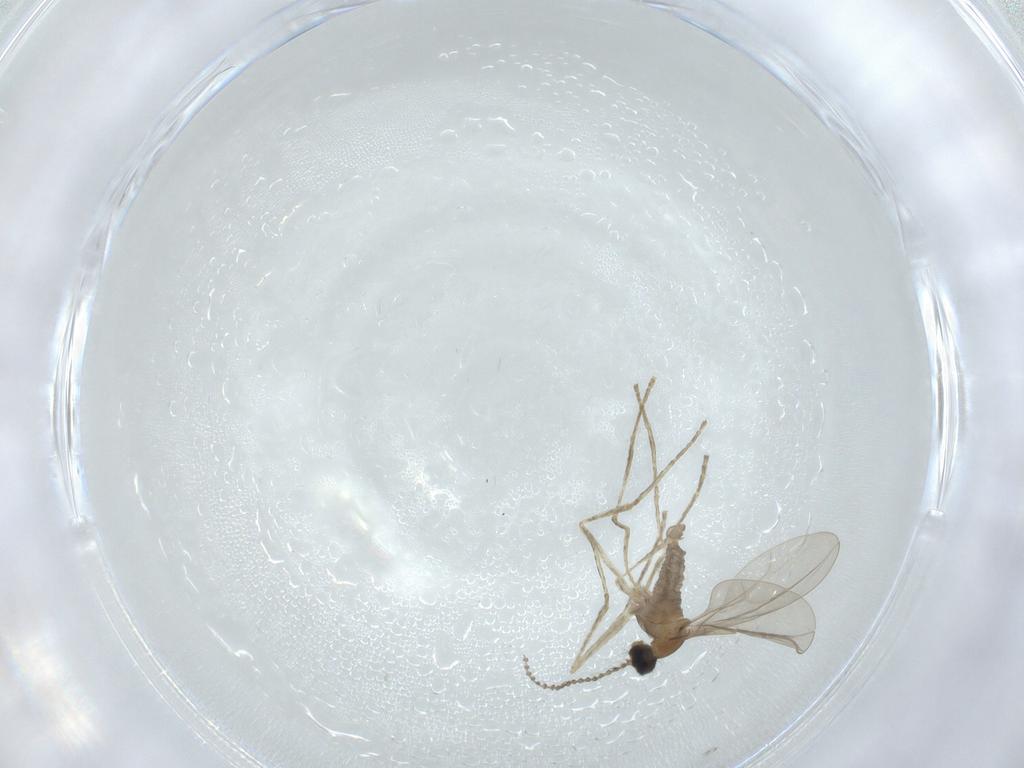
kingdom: Animalia
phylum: Arthropoda
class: Insecta
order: Diptera
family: Cecidomyiidae
